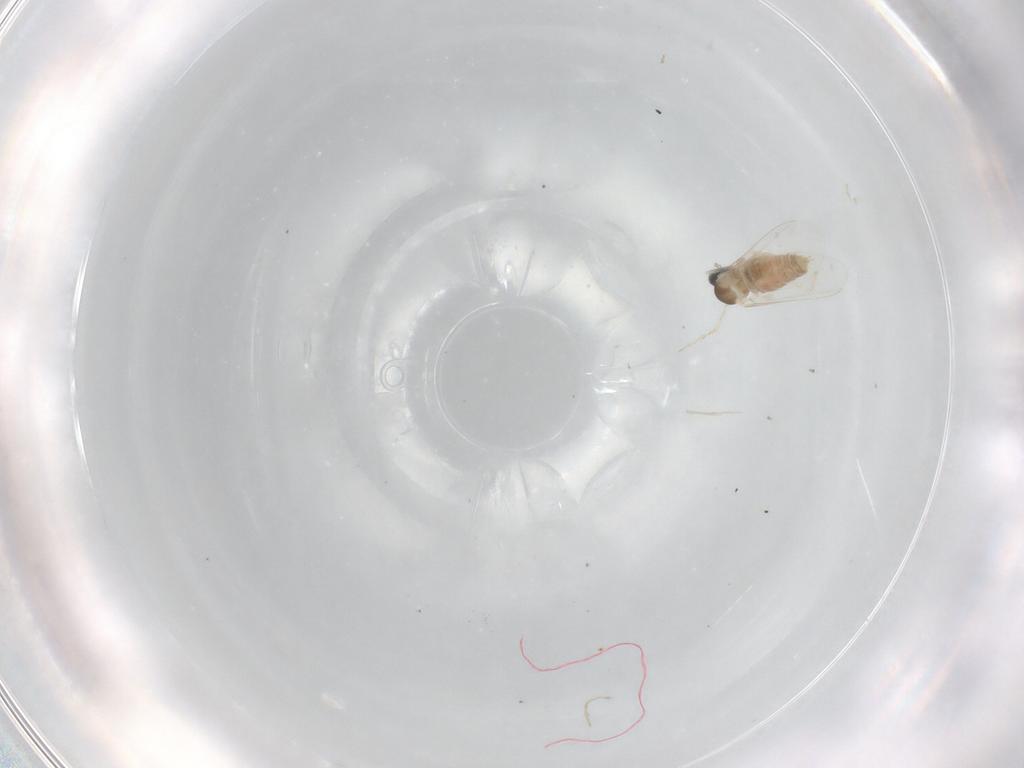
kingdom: Animalia
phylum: Arthropoda
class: Insecta
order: Diptera
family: Cecidomyiidae
